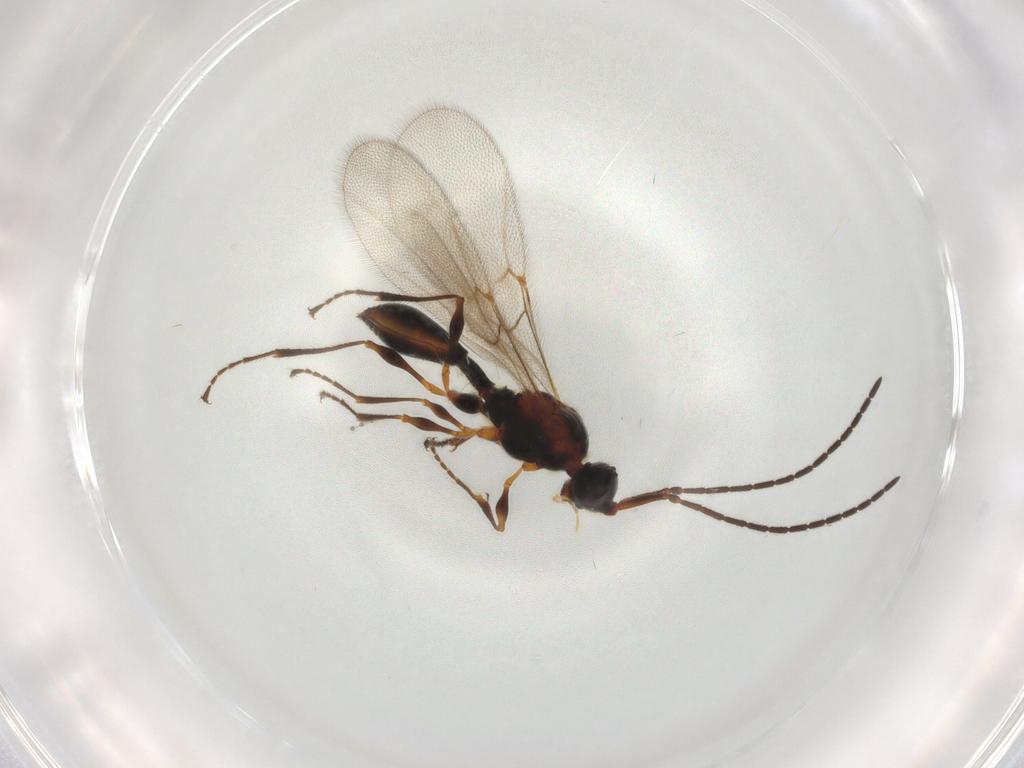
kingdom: Animalia
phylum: Arthropoda
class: Insecta
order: Hymenoptera
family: Diapriidae
